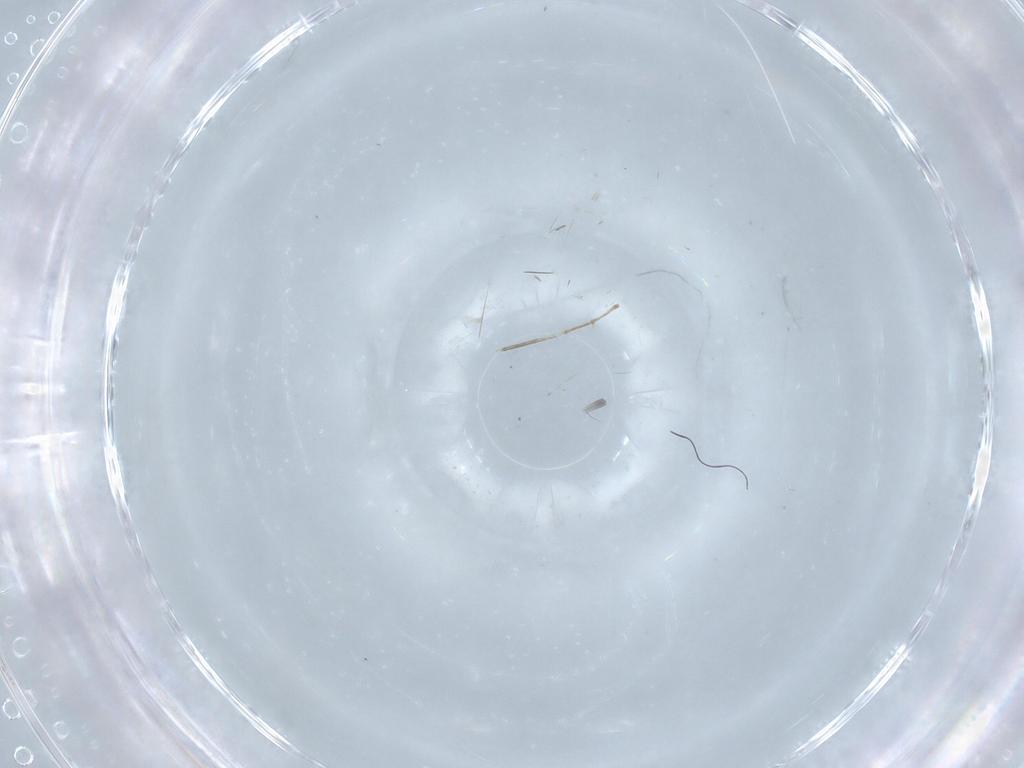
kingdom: Animalia
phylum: Arthropoda
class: Insecta
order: Hemiptera
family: Aleyrodidae
